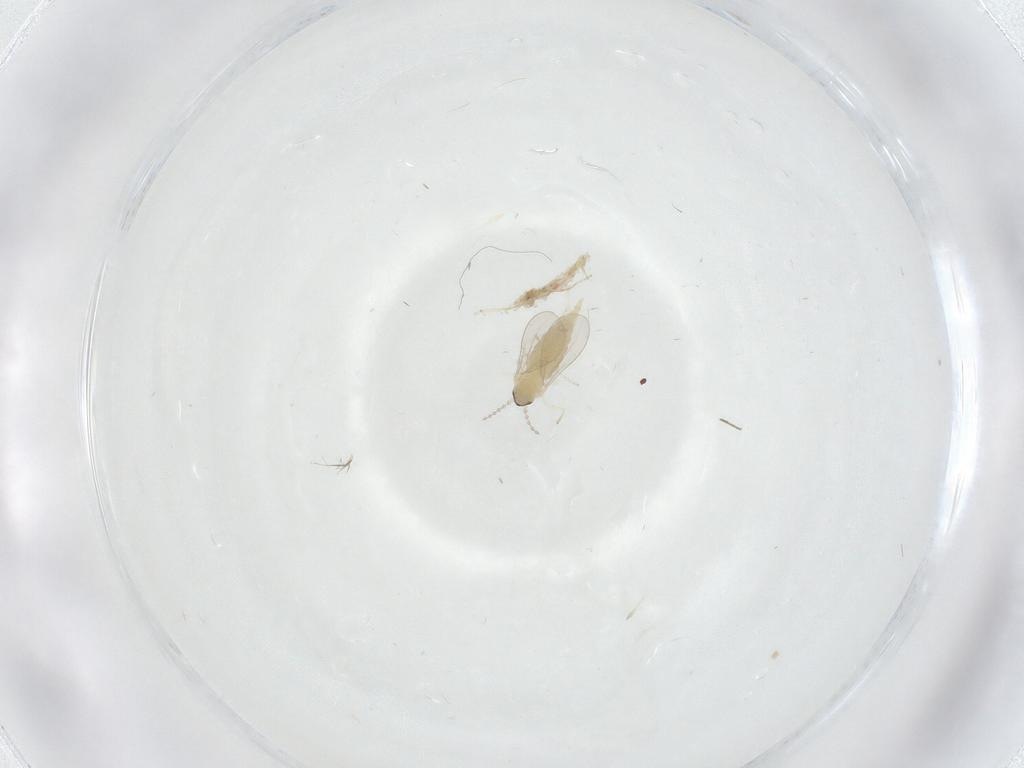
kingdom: Animalia
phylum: Arthropoda
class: Insecta
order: Diptera
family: Cecidomyiidae
